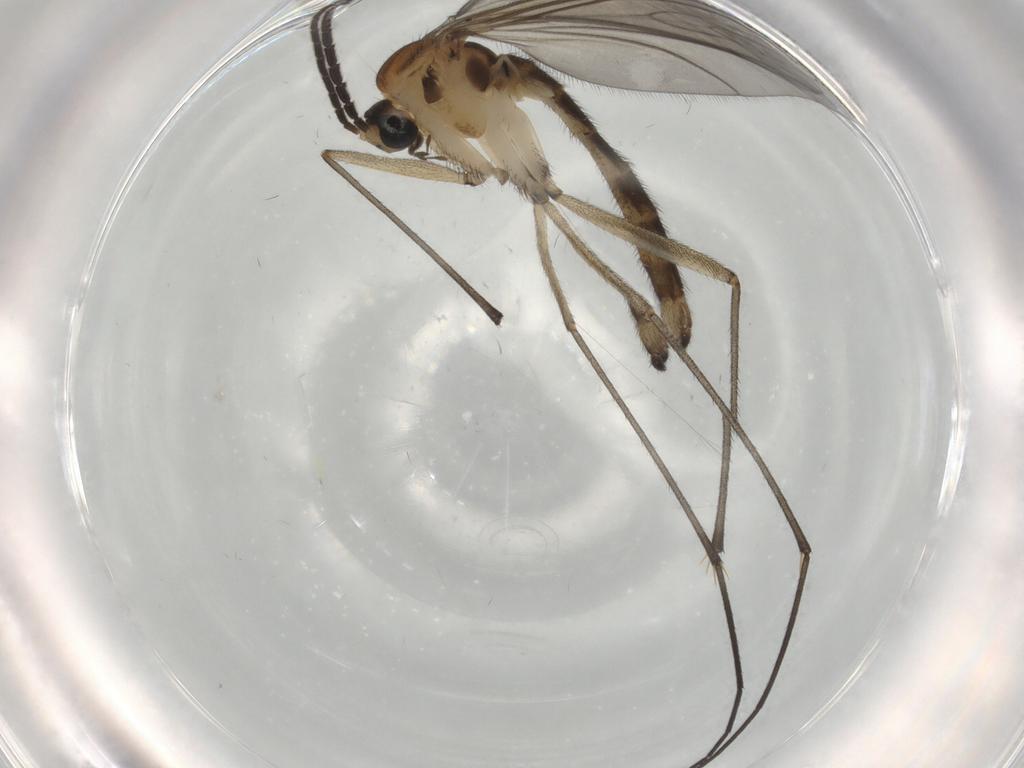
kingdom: Animalia
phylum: Arthropoda
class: Insecta
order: Diptera
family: Sciaridae
